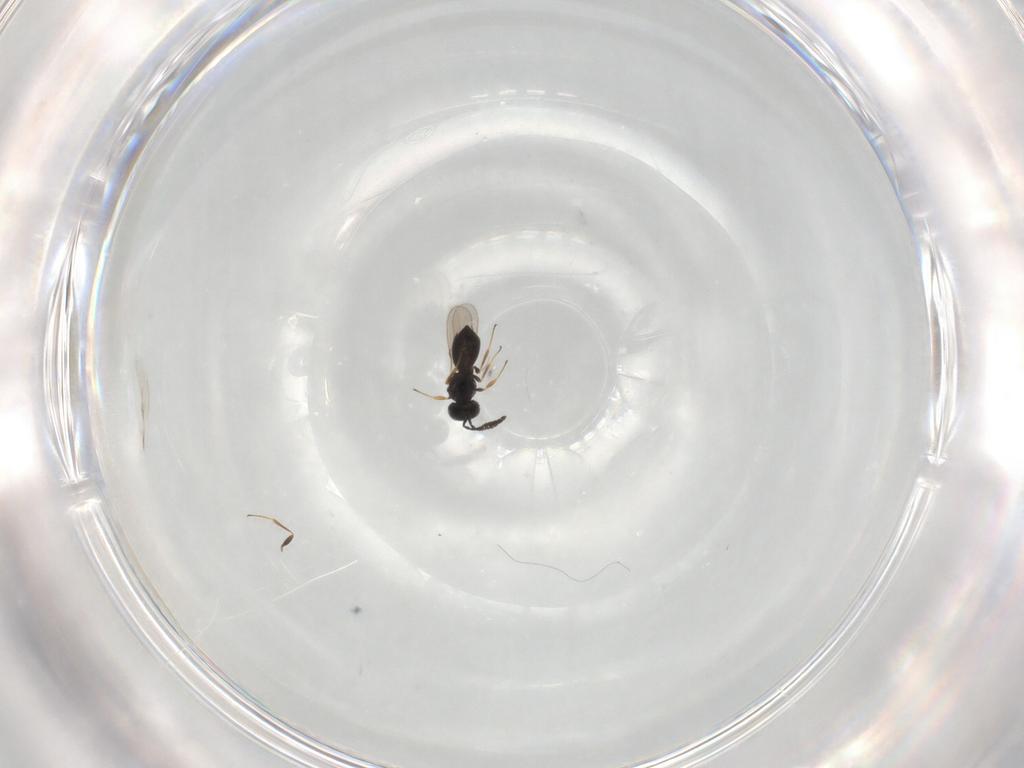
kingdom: Animalia
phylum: Arthropoda
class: Insecta
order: Hymenoptera
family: Scelionidae
